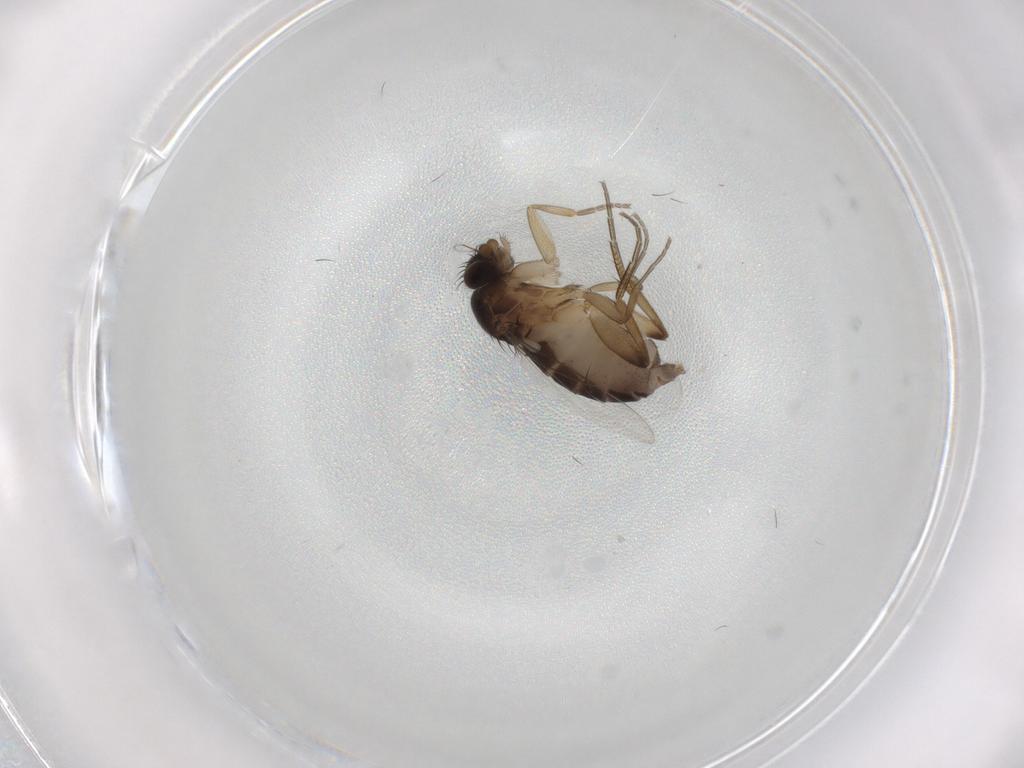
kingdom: Animalia
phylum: Arthropoda
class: Insecta
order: Diptera
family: Phoridae
